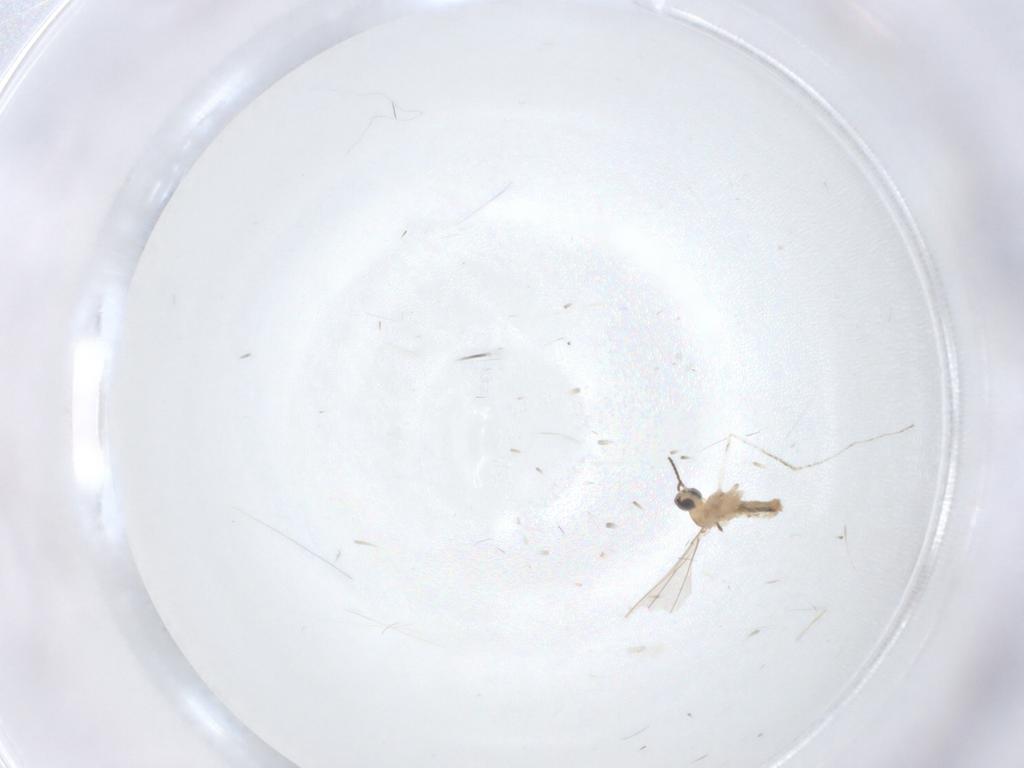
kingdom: Animalia
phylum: Arthropoda
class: Insecta
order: Diptera
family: Cecidomyiidae
